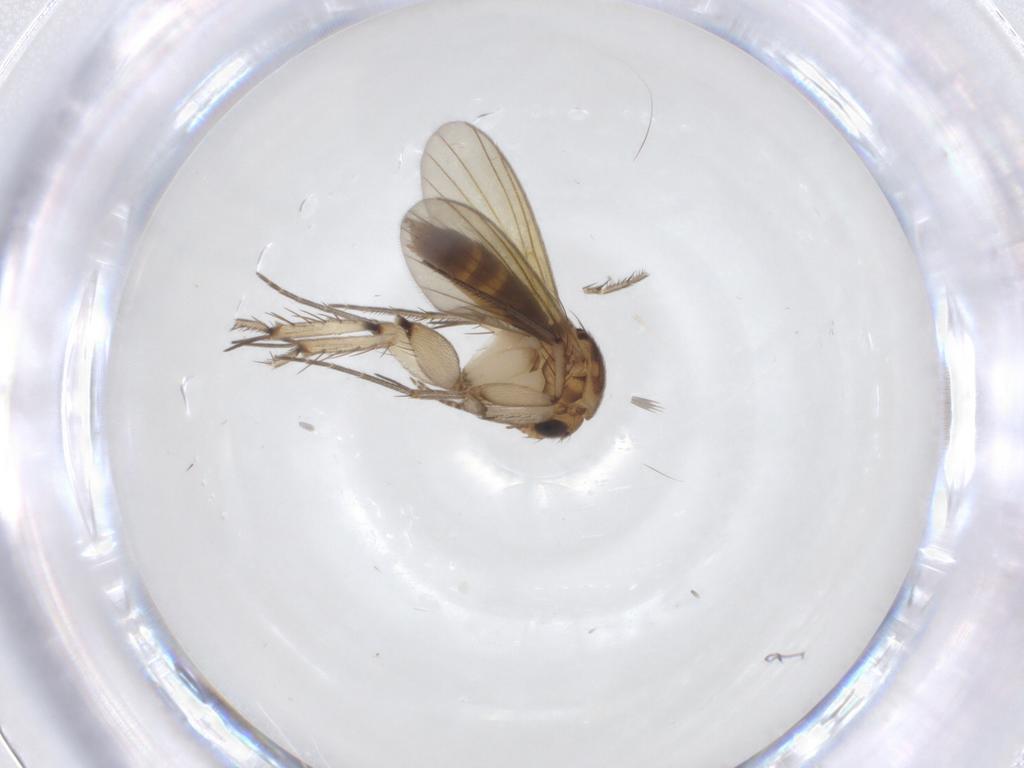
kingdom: Animalia
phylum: Arthropoda
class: Insecta
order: Diptera
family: Mycetophilidae
